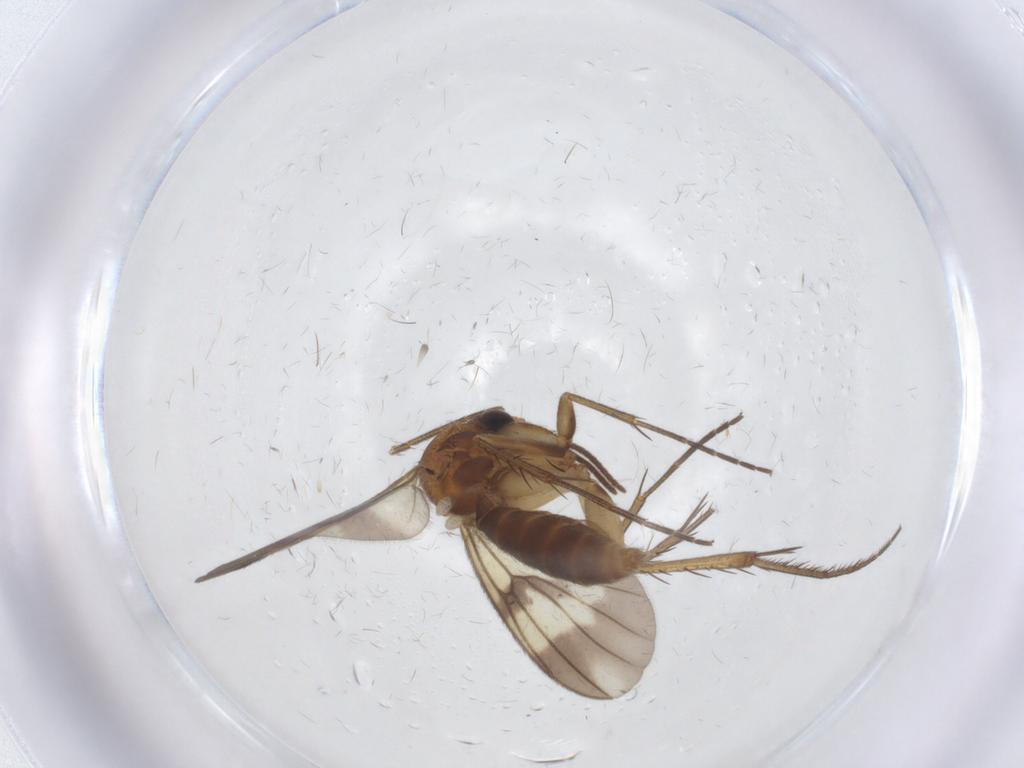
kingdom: Animalia
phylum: Arthropoda
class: Insecta
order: Diptera
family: Mycetophilidae
